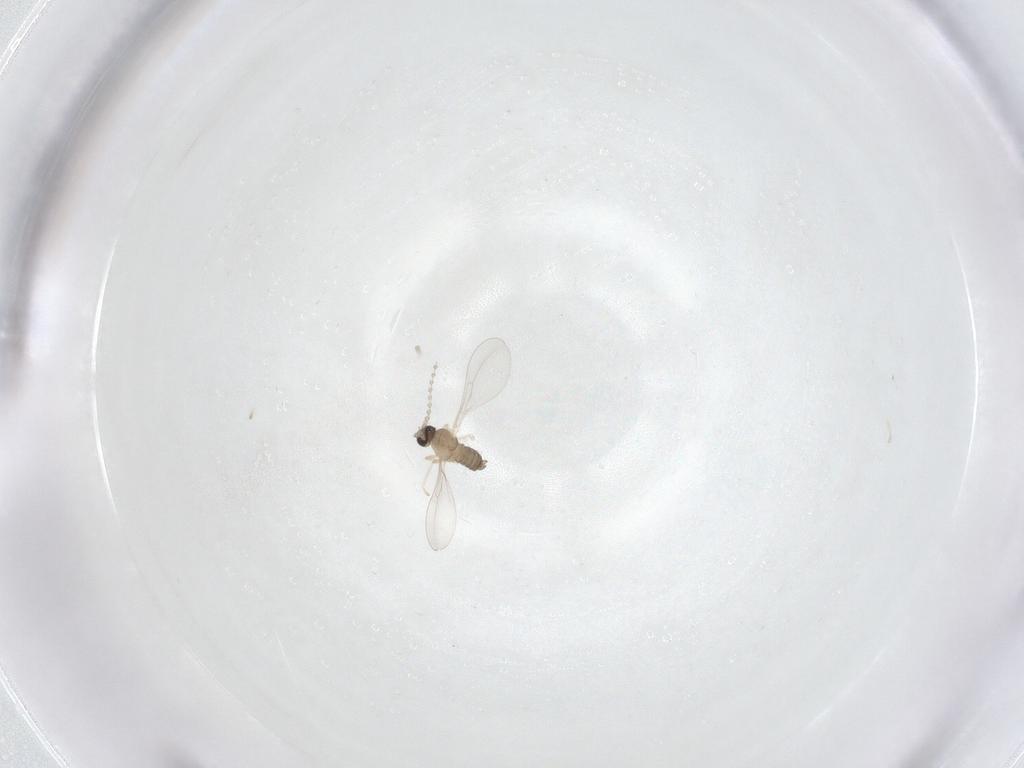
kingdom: Animalia
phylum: Arthropoda
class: Insecta
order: Diptera
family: Cecidomyiidae
